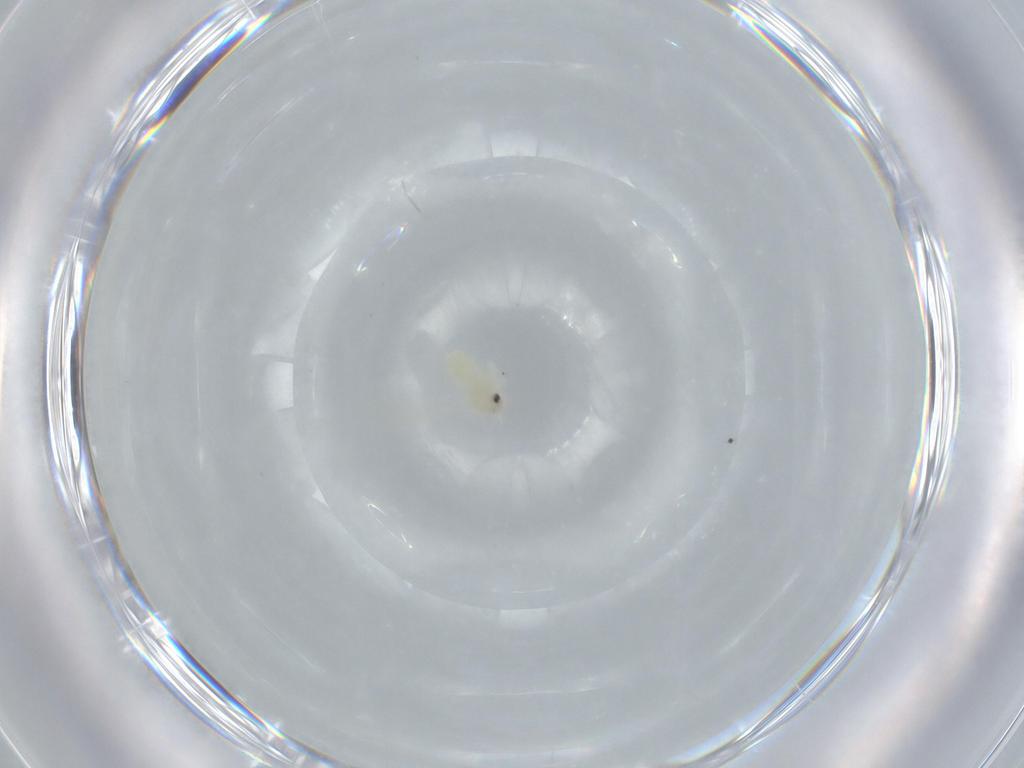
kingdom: Animalia
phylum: Arthropoda
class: Insecta
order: Hemiptera
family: Aleyrodidae
